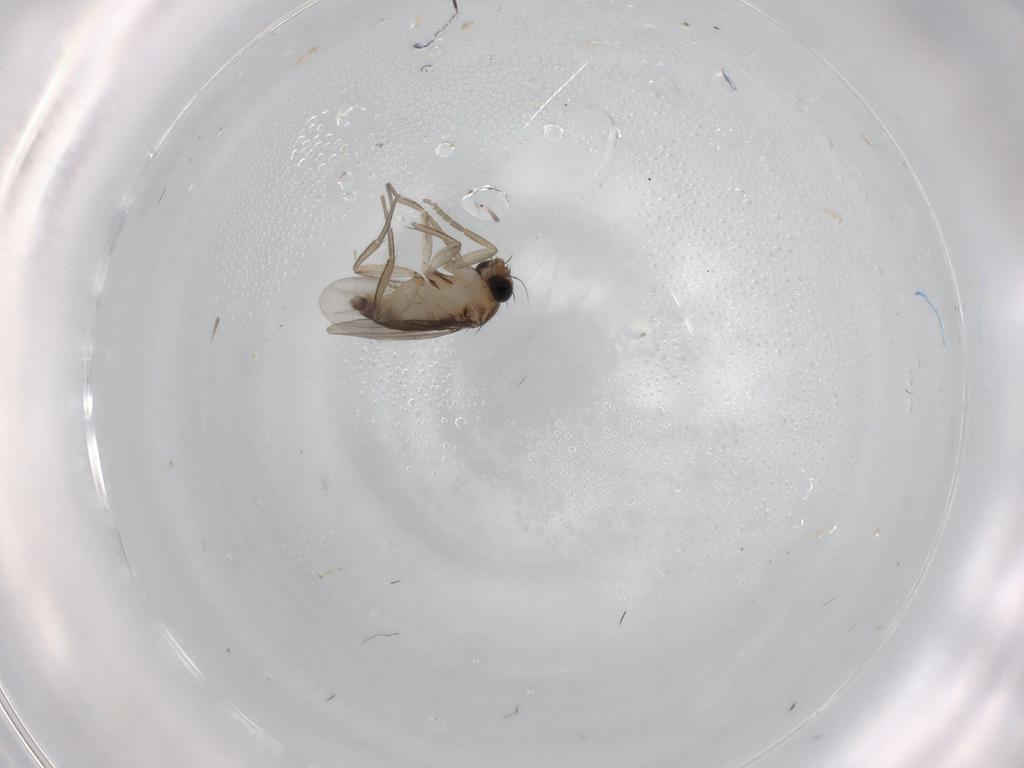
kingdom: Animalia
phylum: Arthropoda
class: Insecta
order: Diptera
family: Phoridae
